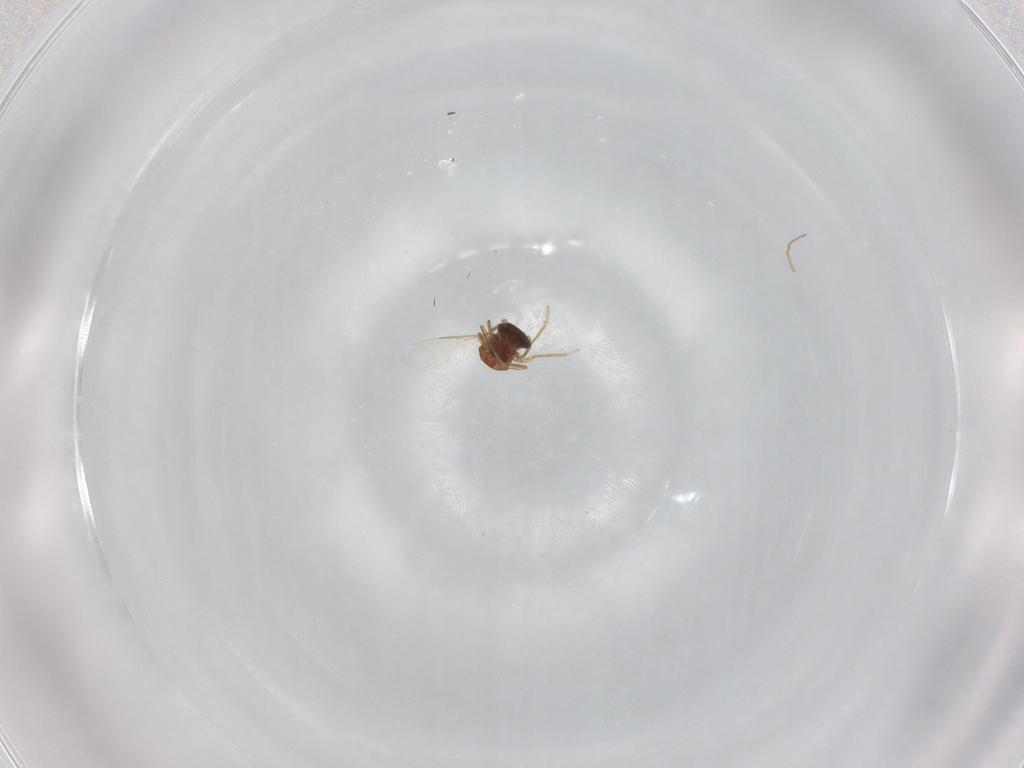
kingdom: Animalia
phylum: Arthropoda
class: Insecta
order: Diptera
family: Ceratopogonidae
